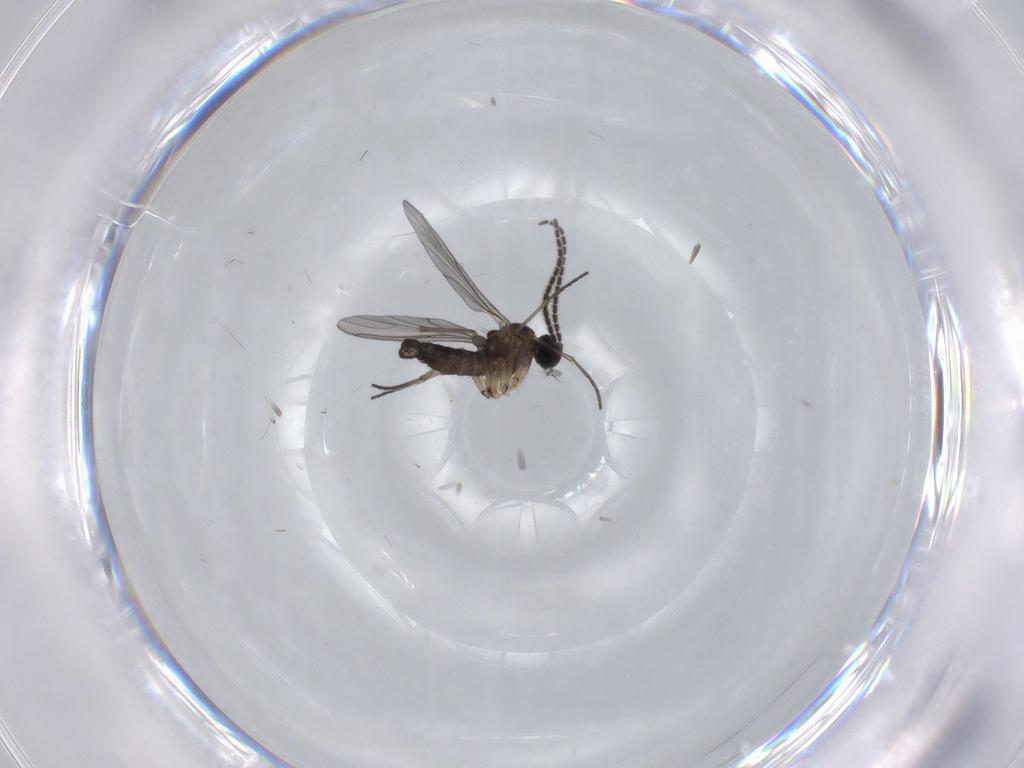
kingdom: Animalia
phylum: Arthropoda
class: Insecta
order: Diptera
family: Sciaridae
